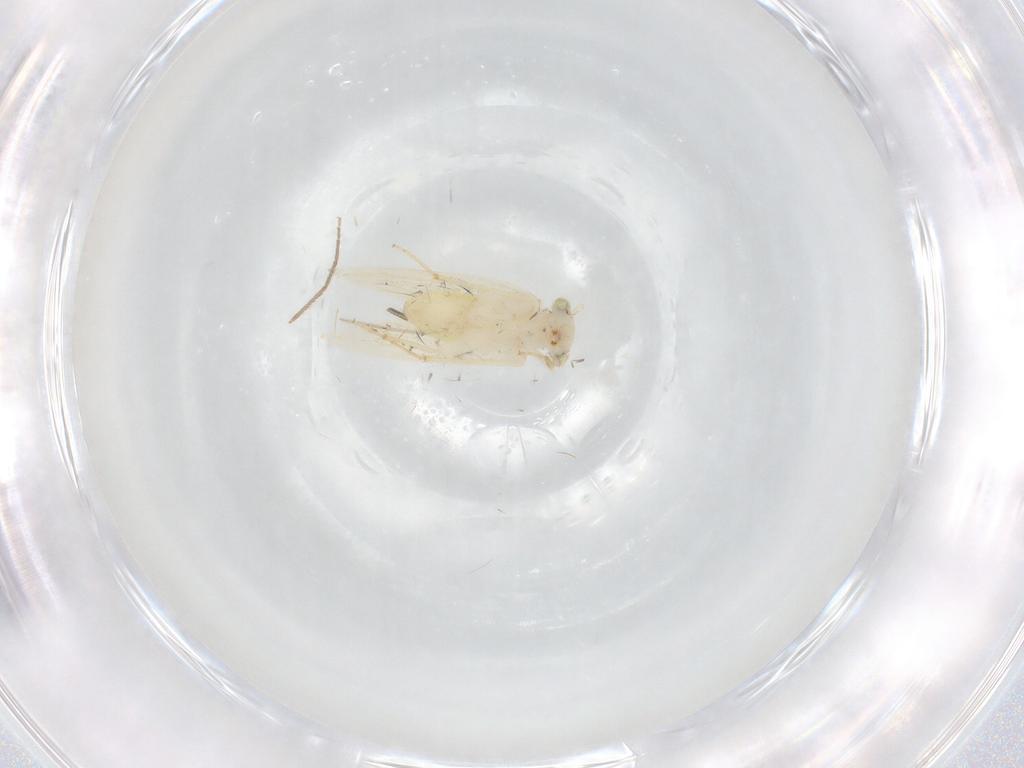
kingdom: Animalia
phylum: Arthropoda
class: Insecta
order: Psocodea
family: Lepidopsocidae
